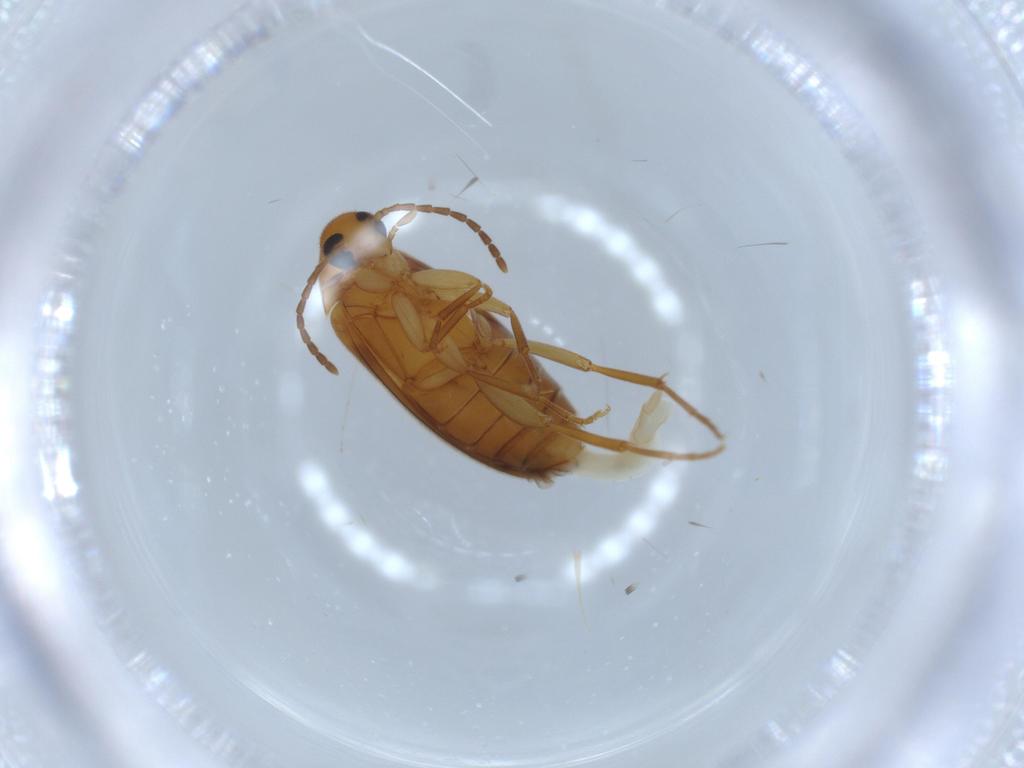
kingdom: Animalia
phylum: Arthropoda
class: Insecta
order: Coleoptera
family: Scraptiidae
